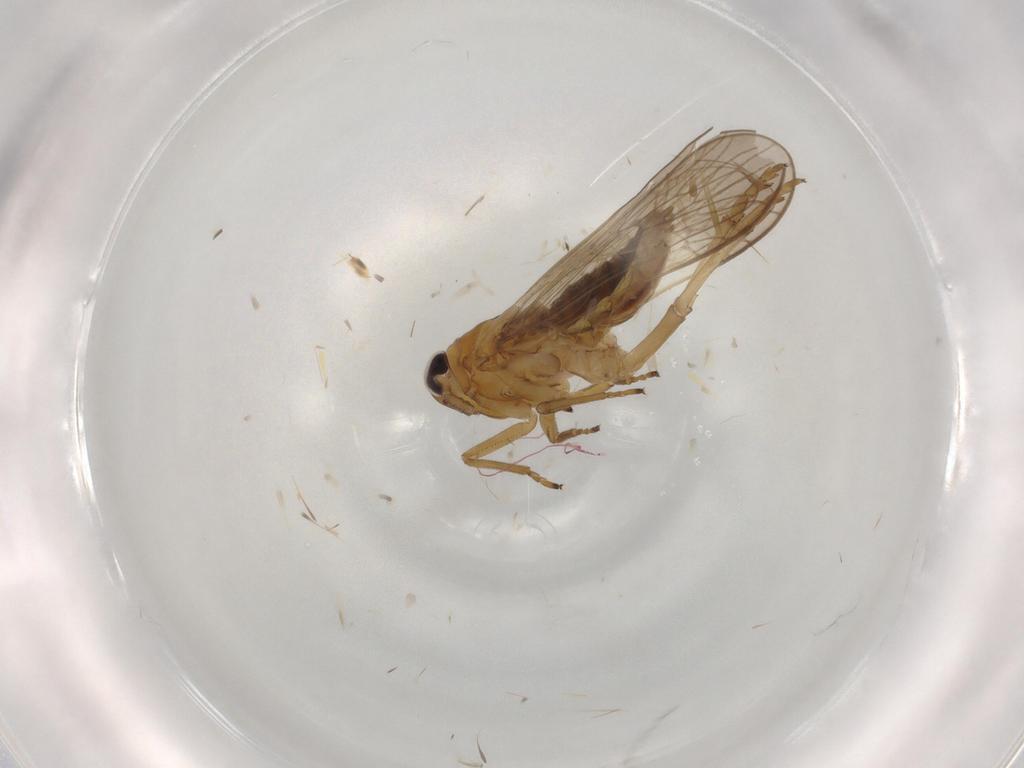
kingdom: Animalia
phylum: Arthropoda
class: Insecta
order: Hemiptera
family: Delphacidae
